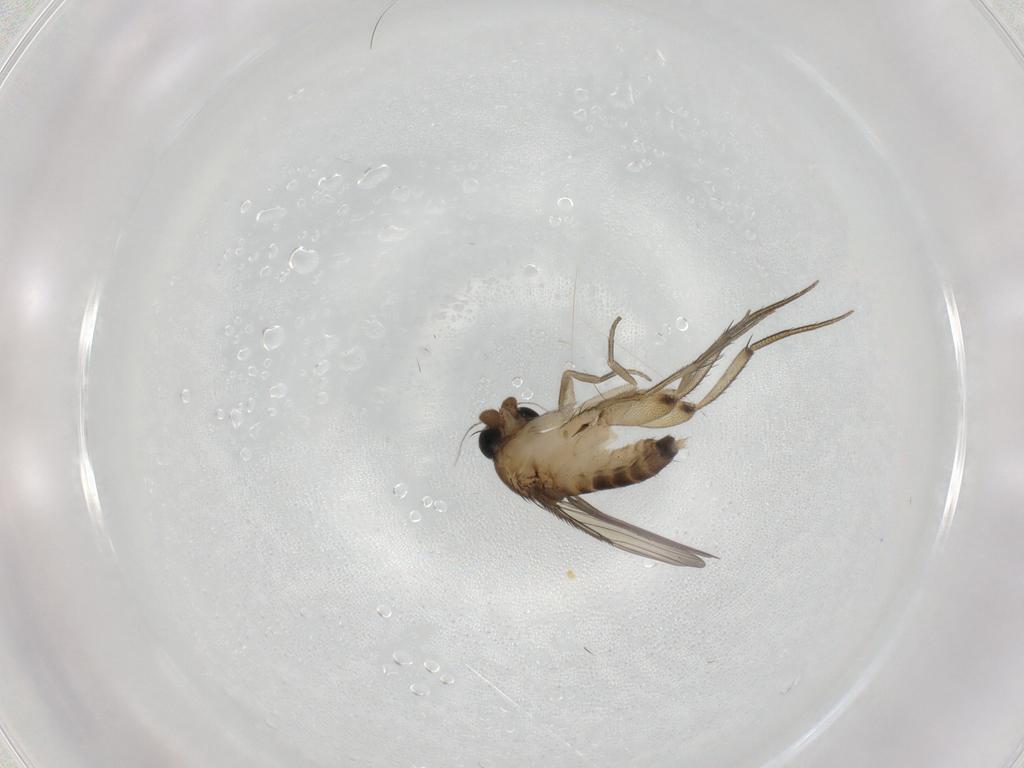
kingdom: Animalia
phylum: Arthropoda
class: Insecta
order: Diptera
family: Phoridae
